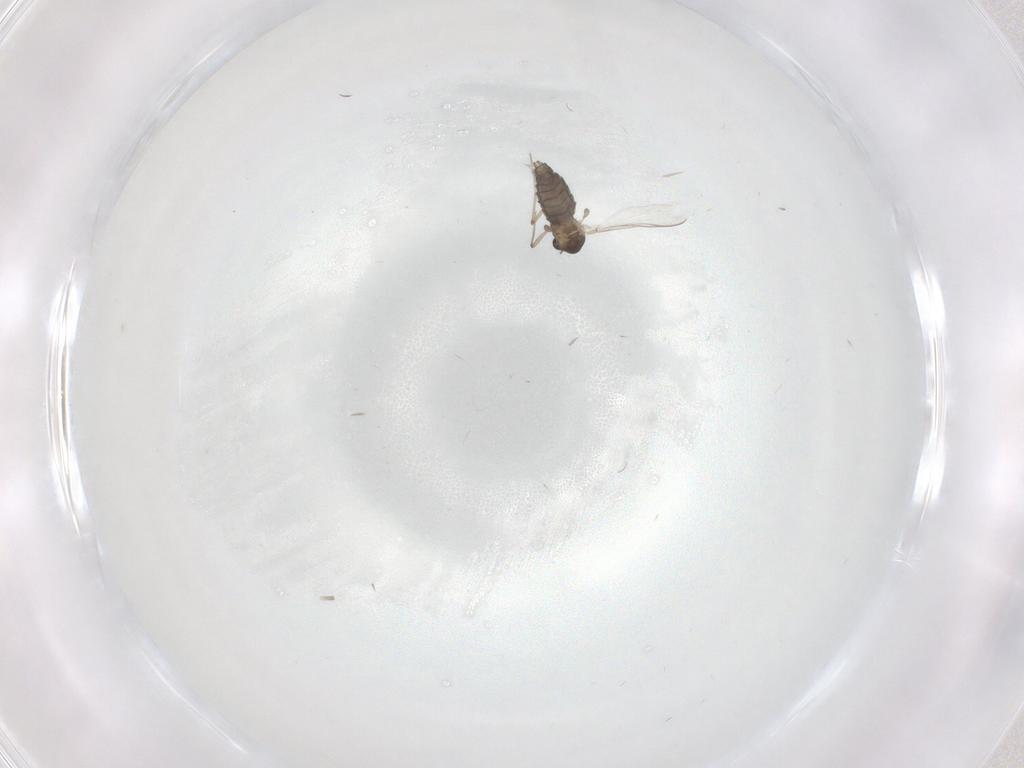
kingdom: Animalia
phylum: Arthropoda
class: Insecta
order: Diptera
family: Chironomidae
